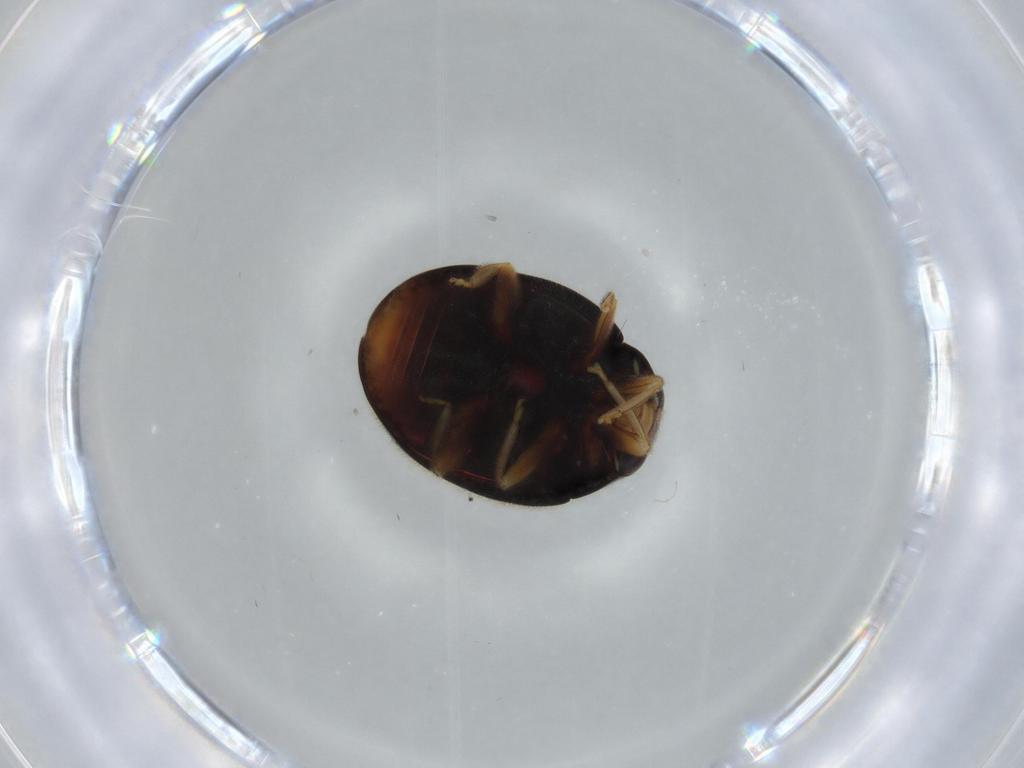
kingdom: Animalia
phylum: Arthropoda
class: Insecta
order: Coleoptera
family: Coccinellidae
